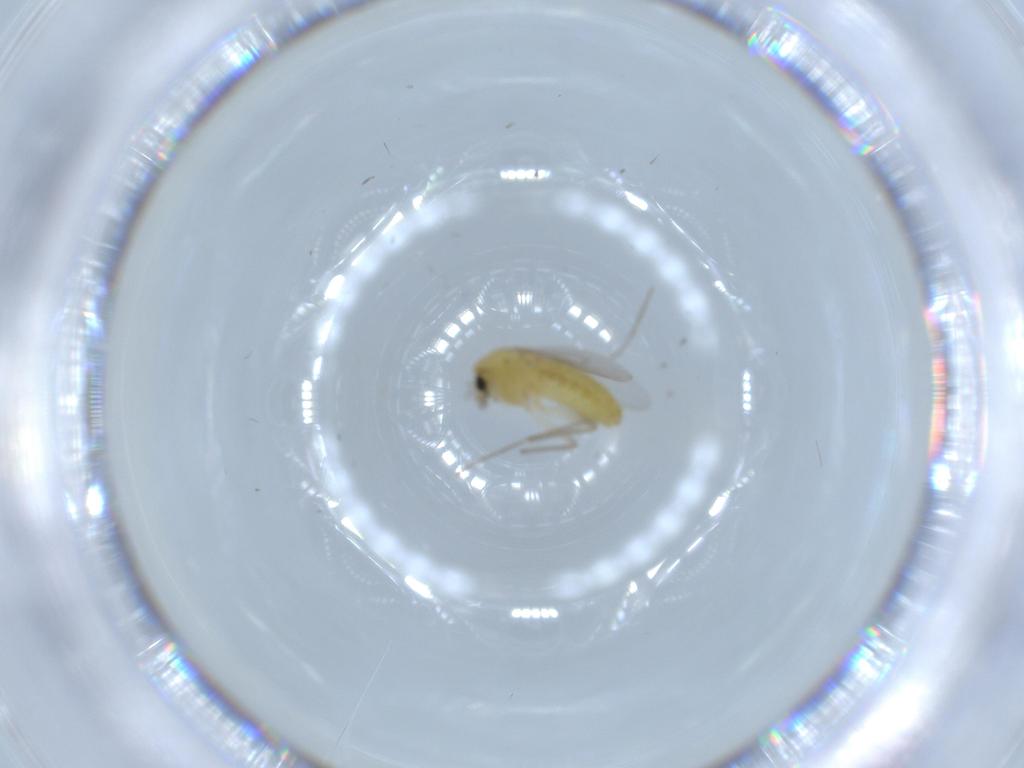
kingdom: Animalia
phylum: Arthropoda
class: Insecta
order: Diptera
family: Chironomidae
